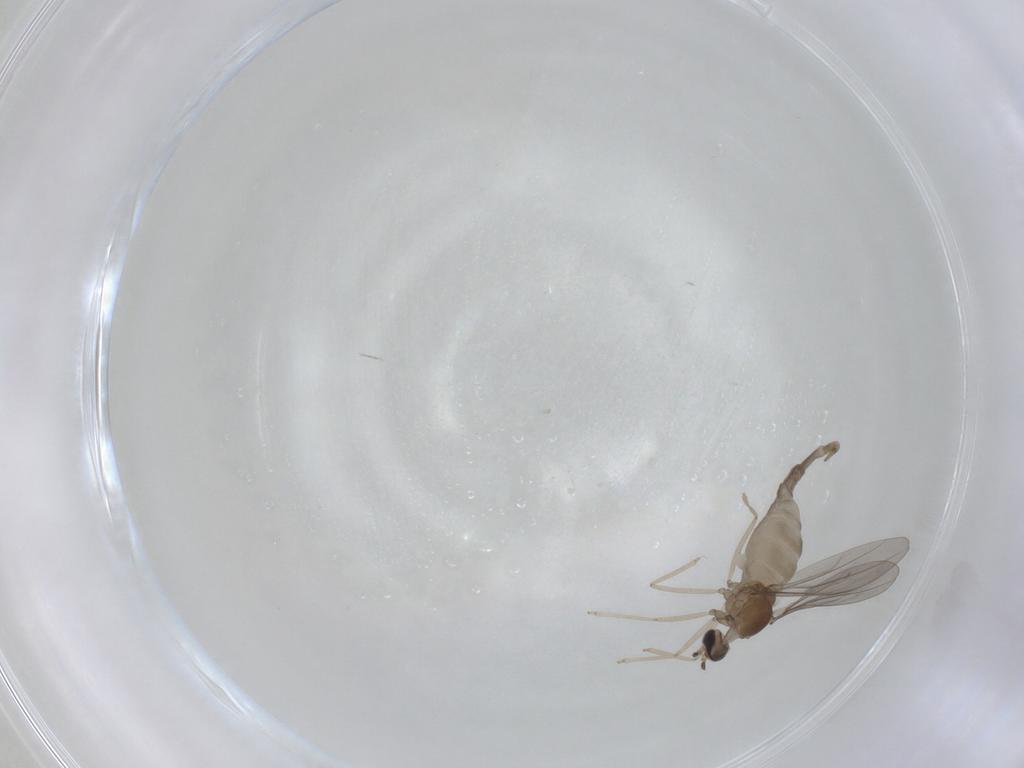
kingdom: Animalia
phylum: Arthropoda
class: Insecta
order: Diptera
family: Cecidomyiidae
